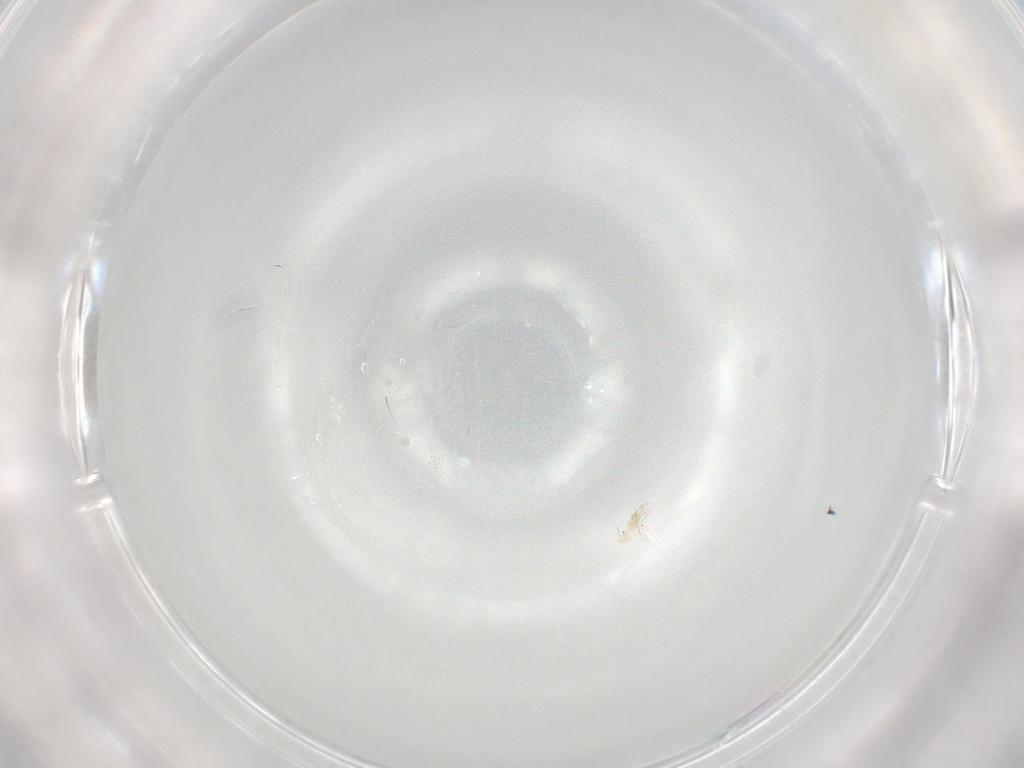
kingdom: Animalia
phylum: Arthropoda
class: Arachnida
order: Trombidiformes
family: Eupodidae
